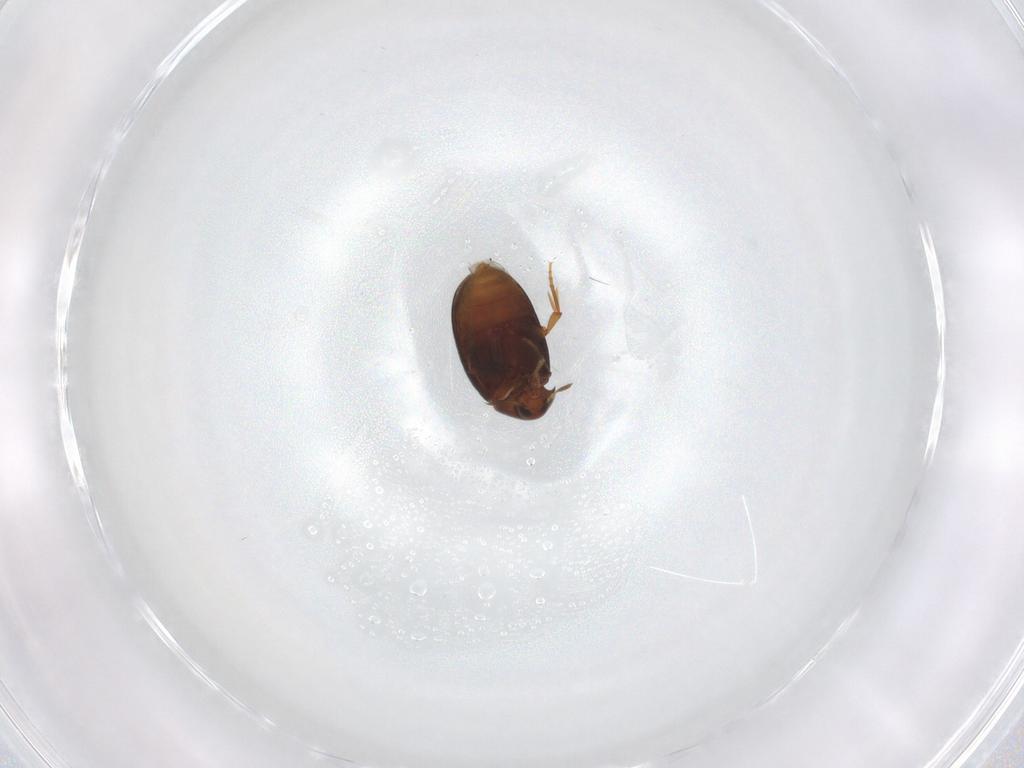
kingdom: Animalia
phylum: Arthropoda
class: Insecta
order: Coleoptera
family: Melandryidae
